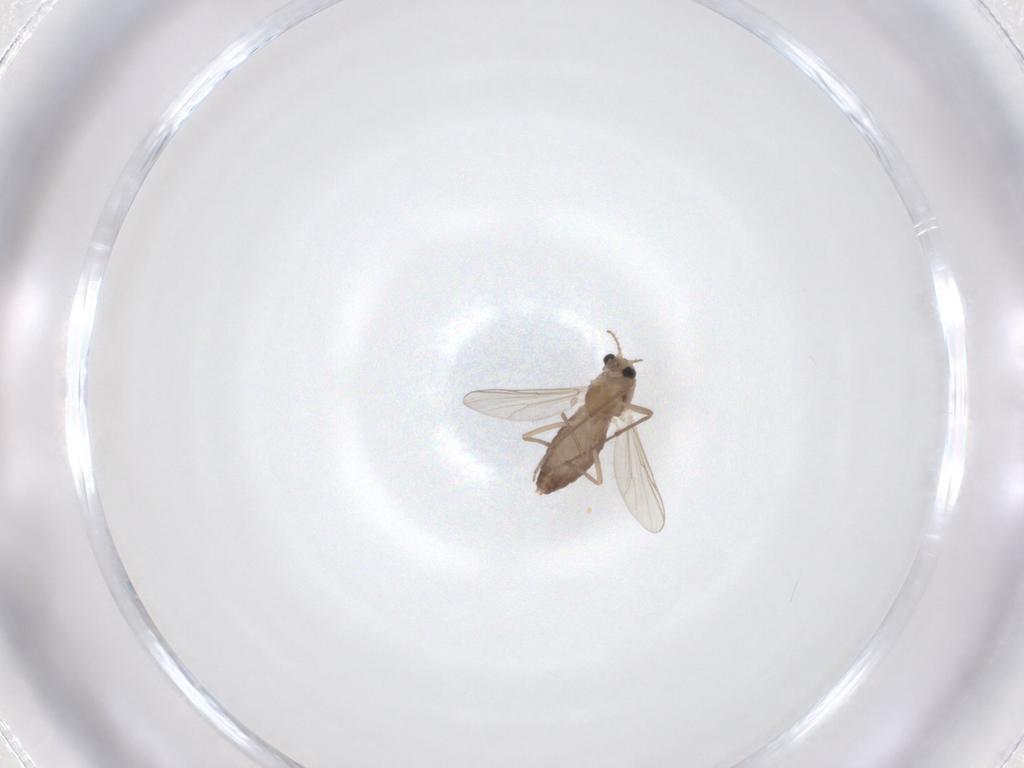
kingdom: Animalia
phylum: Arthropoda
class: Insecta
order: Diptera
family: Chironomidae
